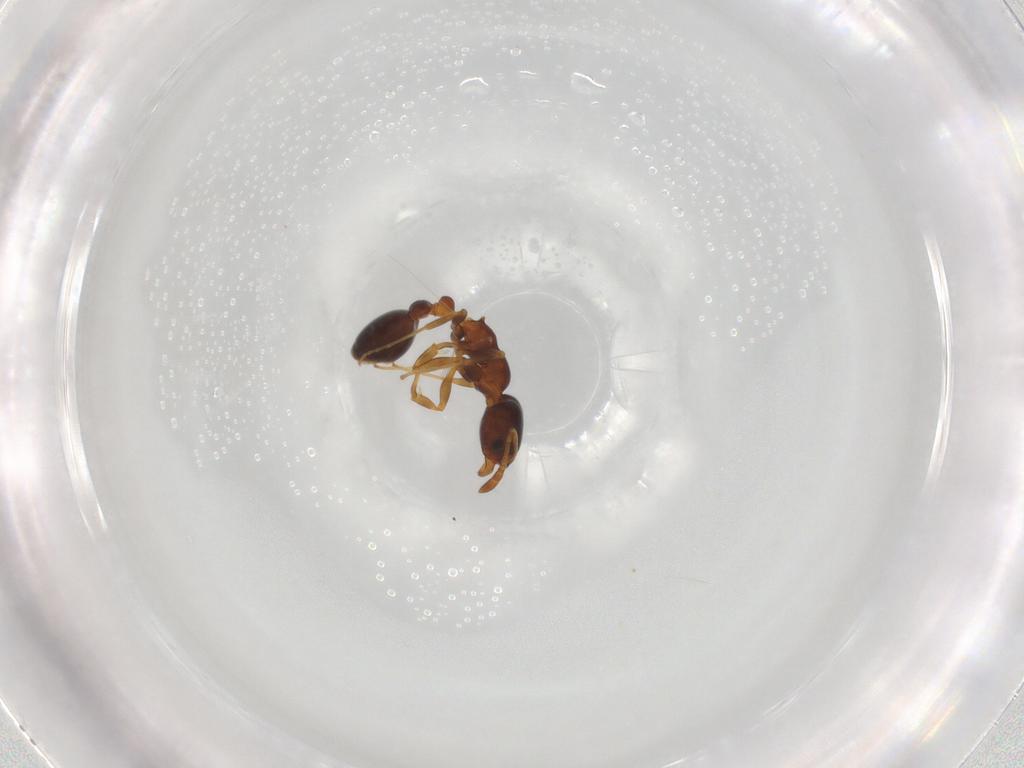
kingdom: Animalia
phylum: Arthropoda
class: Insecta
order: Hymenoptera
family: Formicidae
